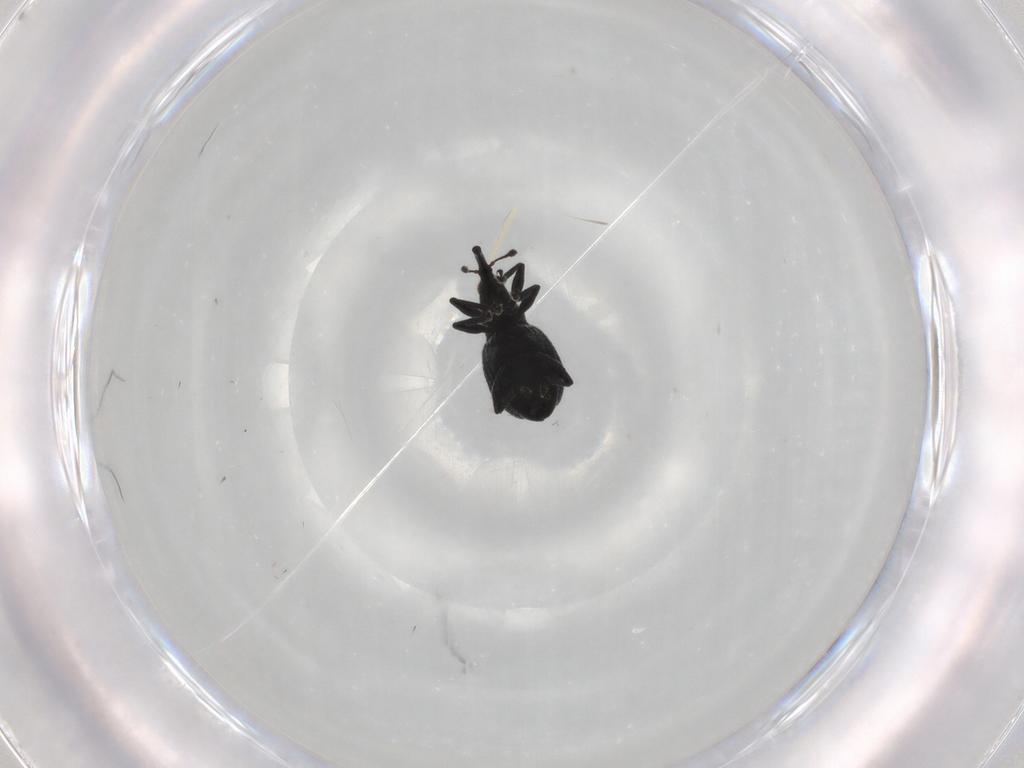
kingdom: Animalia
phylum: Arthropoda
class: Insecta
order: Coleoptera
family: Brentidae
